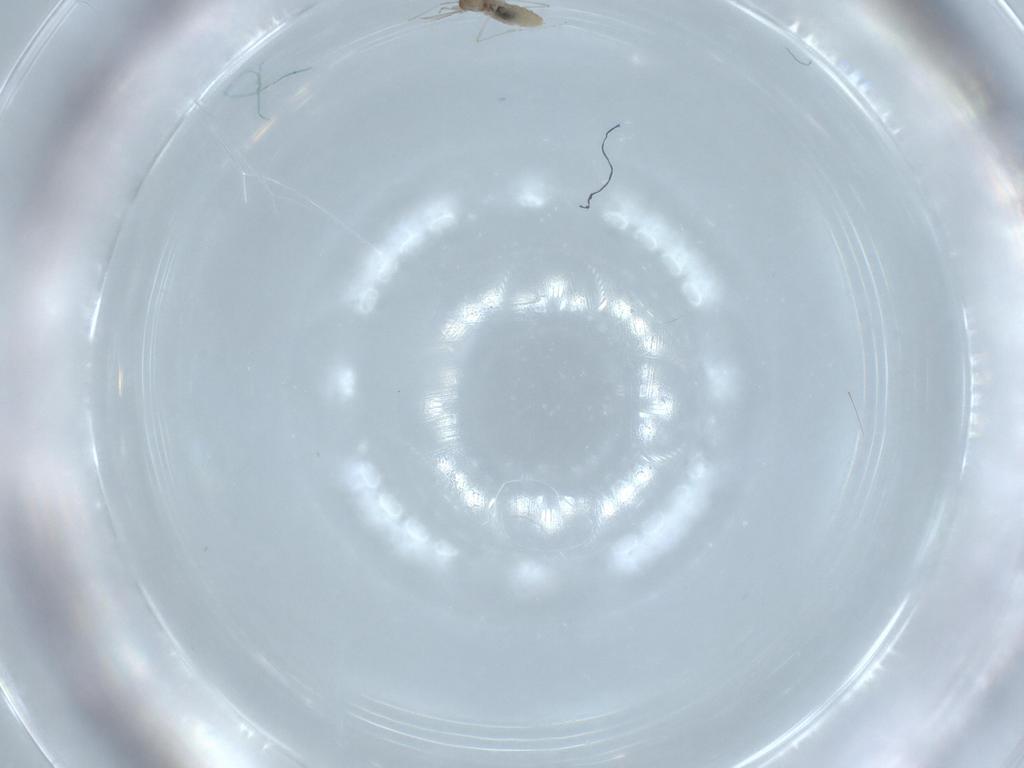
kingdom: Animalia
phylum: Arthropoda
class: Insecta
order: Diptera
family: Cecidomyiidae
